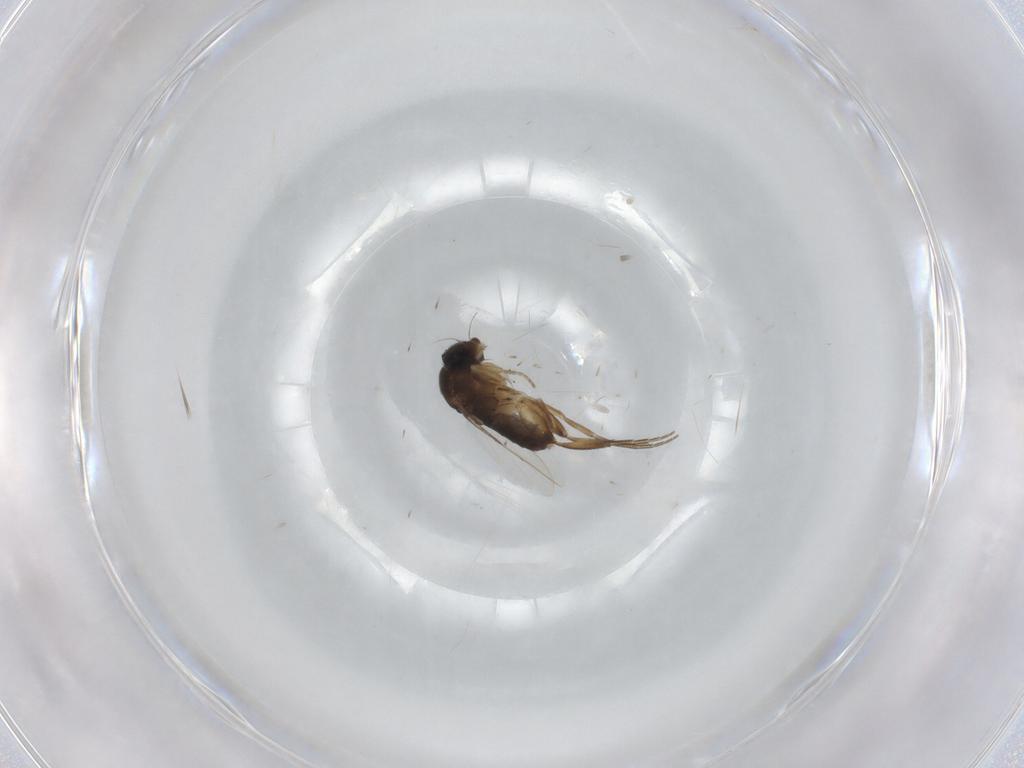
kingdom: Animalia
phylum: Arthropoda
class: Insecta
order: Diptera
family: Phoridae
